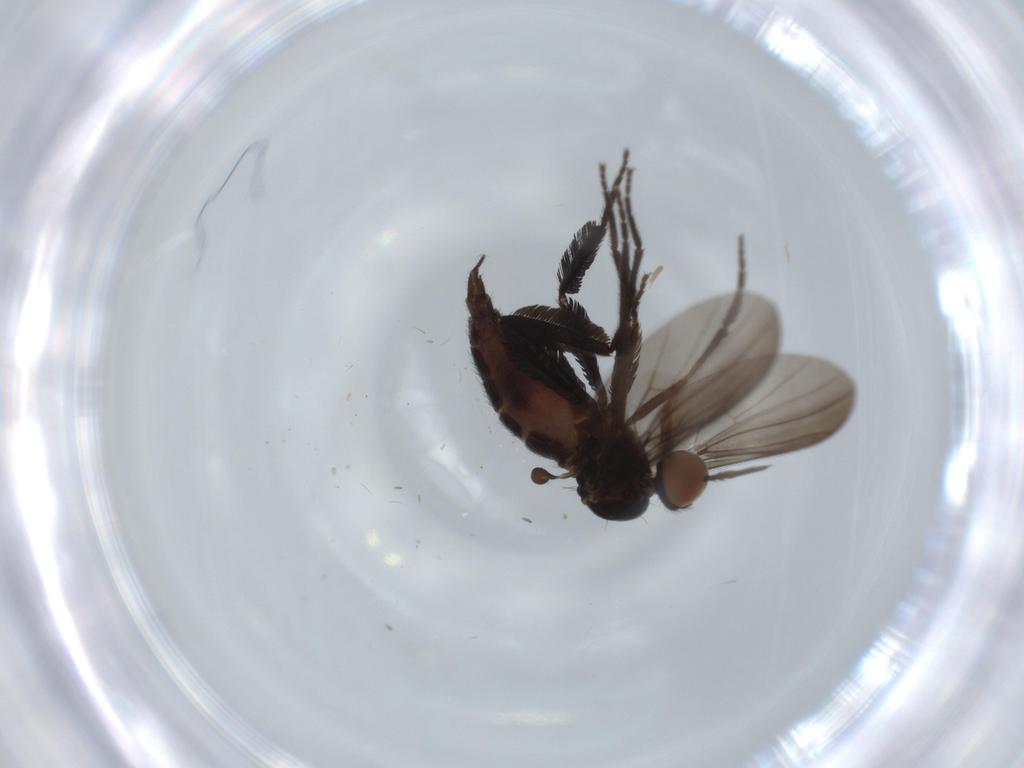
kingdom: Animalia
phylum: Arthropoda
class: Insecta
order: Diptera
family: Empididae
